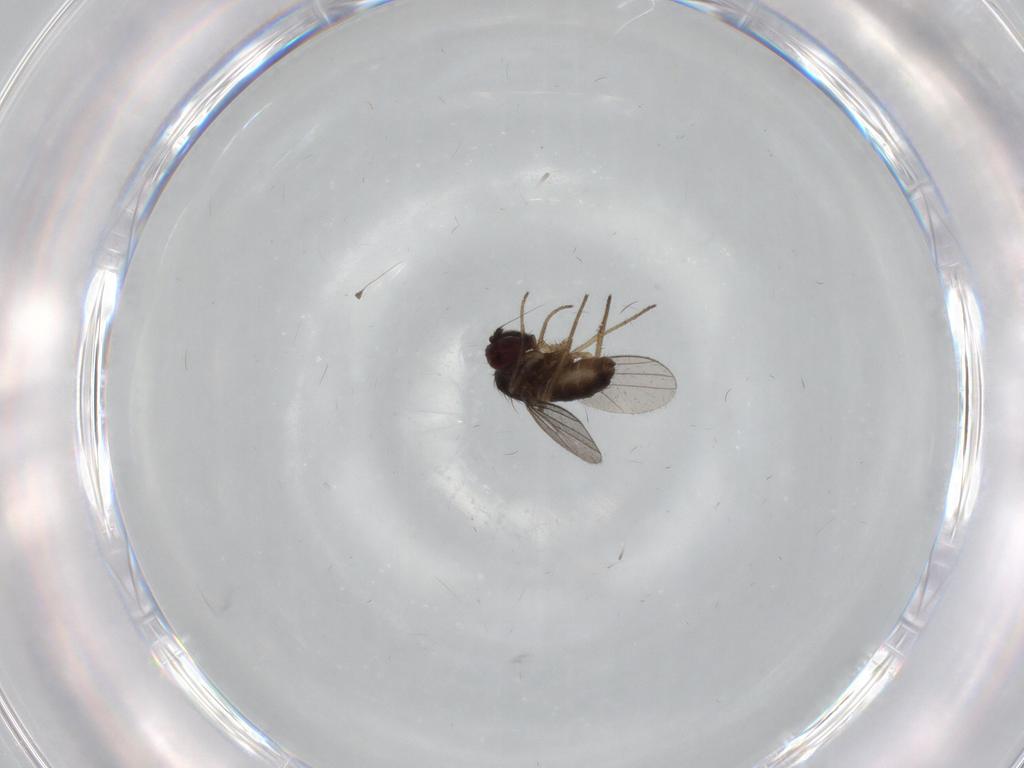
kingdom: Animalia
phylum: Arthropoda
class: Insecta
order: Diptera
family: Dolichopodidae
